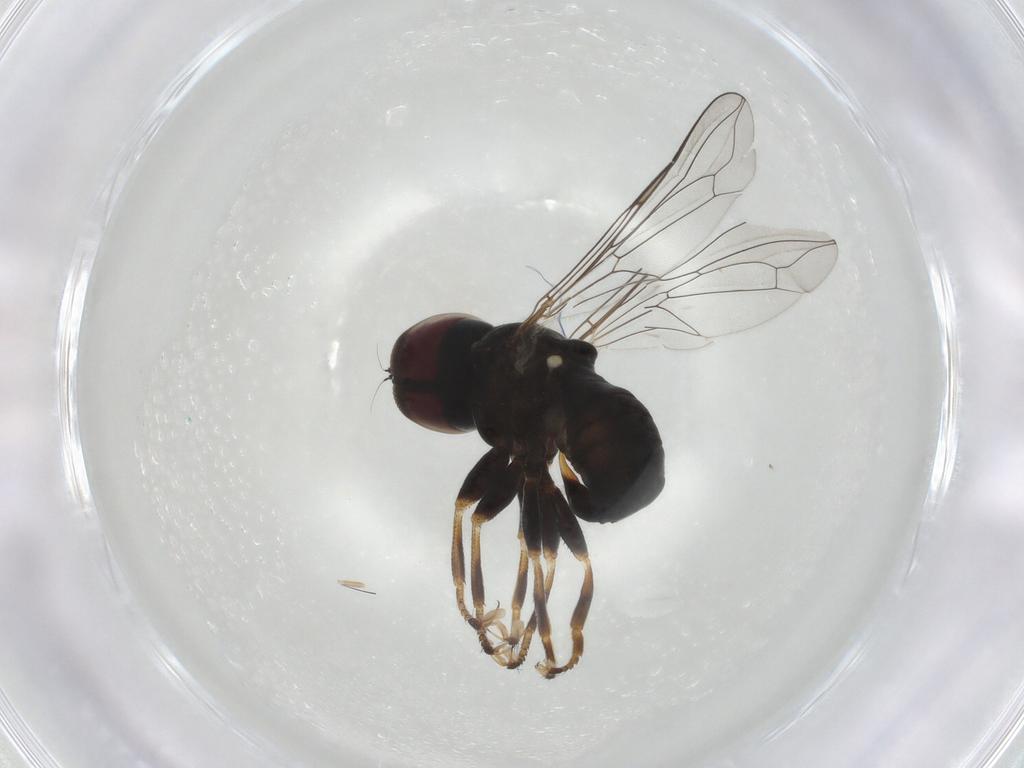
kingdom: Animalia
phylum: Arthropoda
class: Insecta
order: Diptera
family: Pipunculidae
